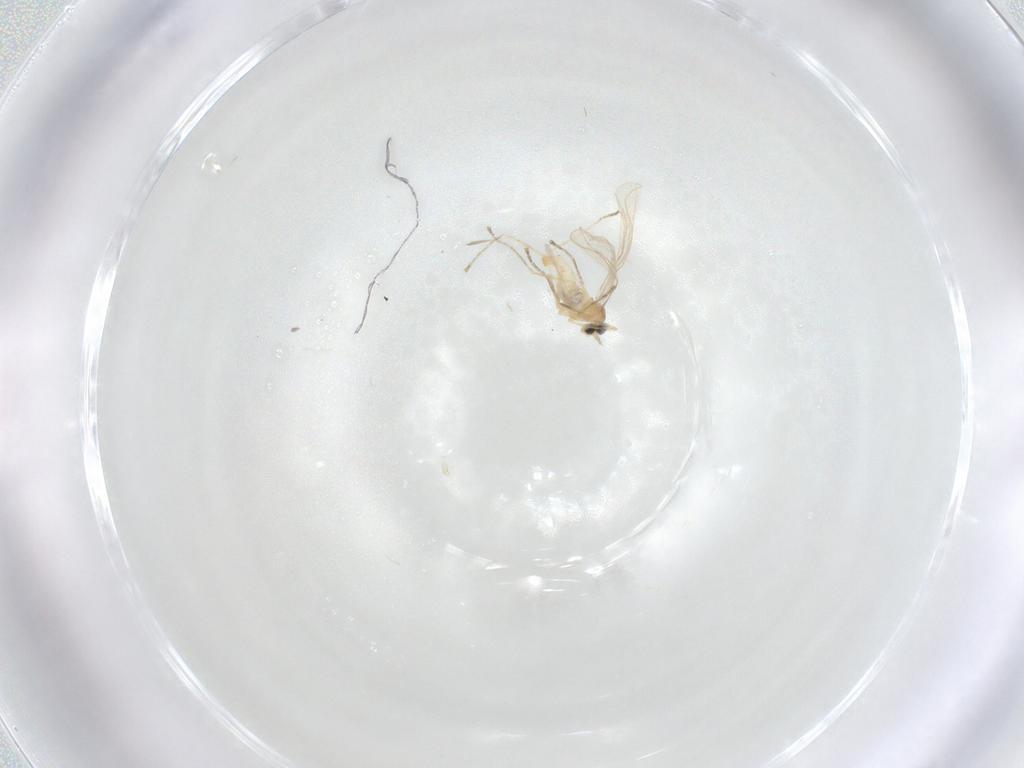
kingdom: Animalia
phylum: Arthropoda
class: Insecta
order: Diptera
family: Cecidomyiidae
